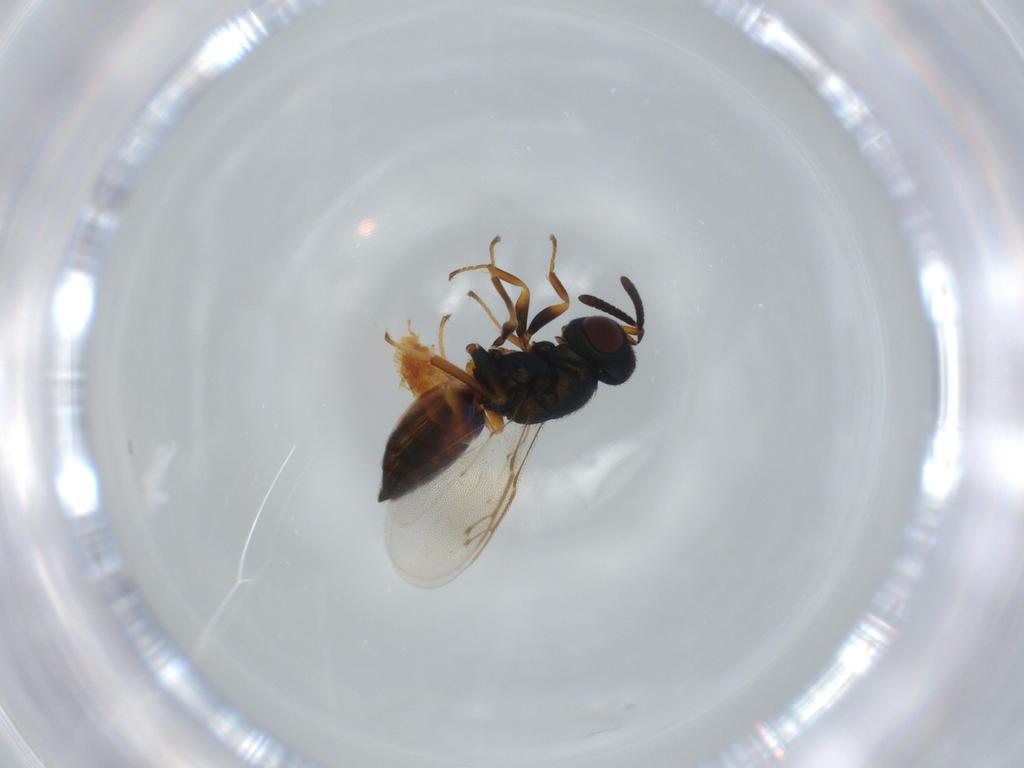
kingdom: Animalia
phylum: Arthropoda
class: Insecta
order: Hymenoptera
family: Pteromalidae
